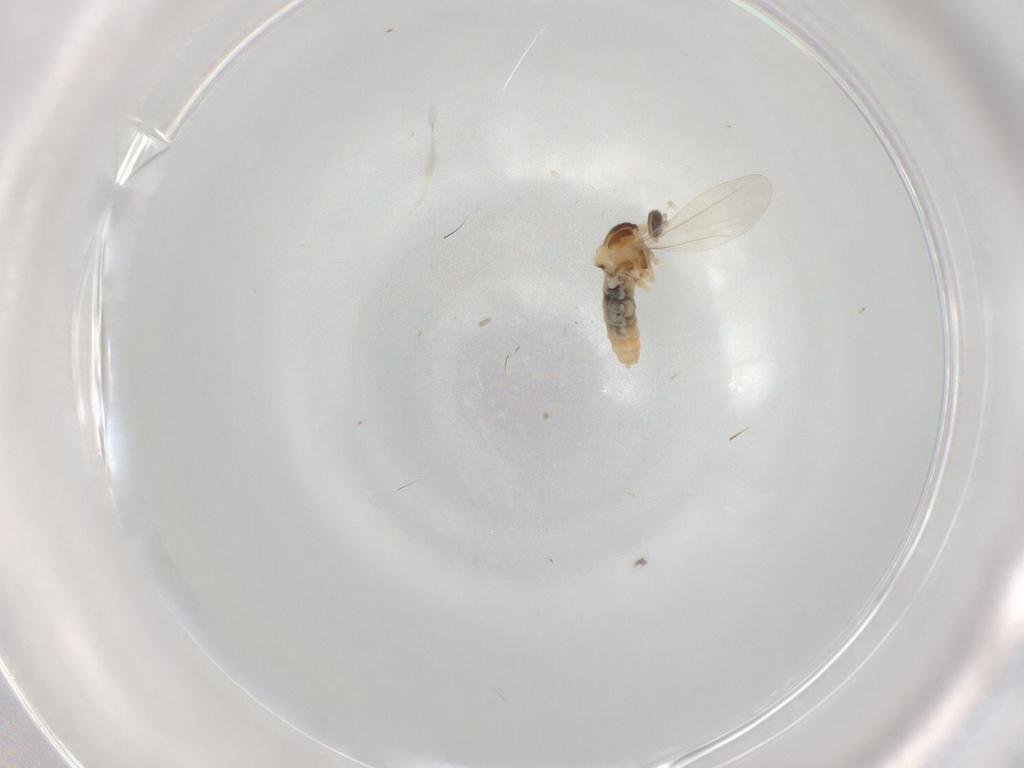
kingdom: Animalia
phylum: Arthropoda
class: Insecta
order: Diptera
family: Cecidomyiidae
